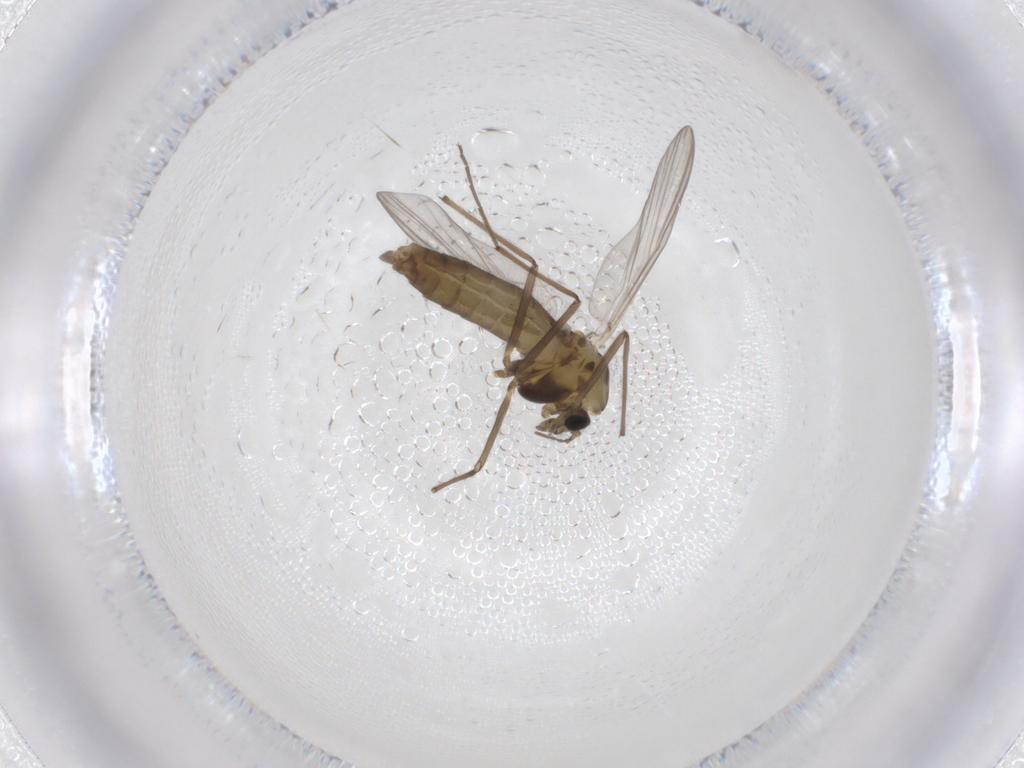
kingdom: Animalia
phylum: Arthropoda
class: Insecta
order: Diptera
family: Chironomidae
